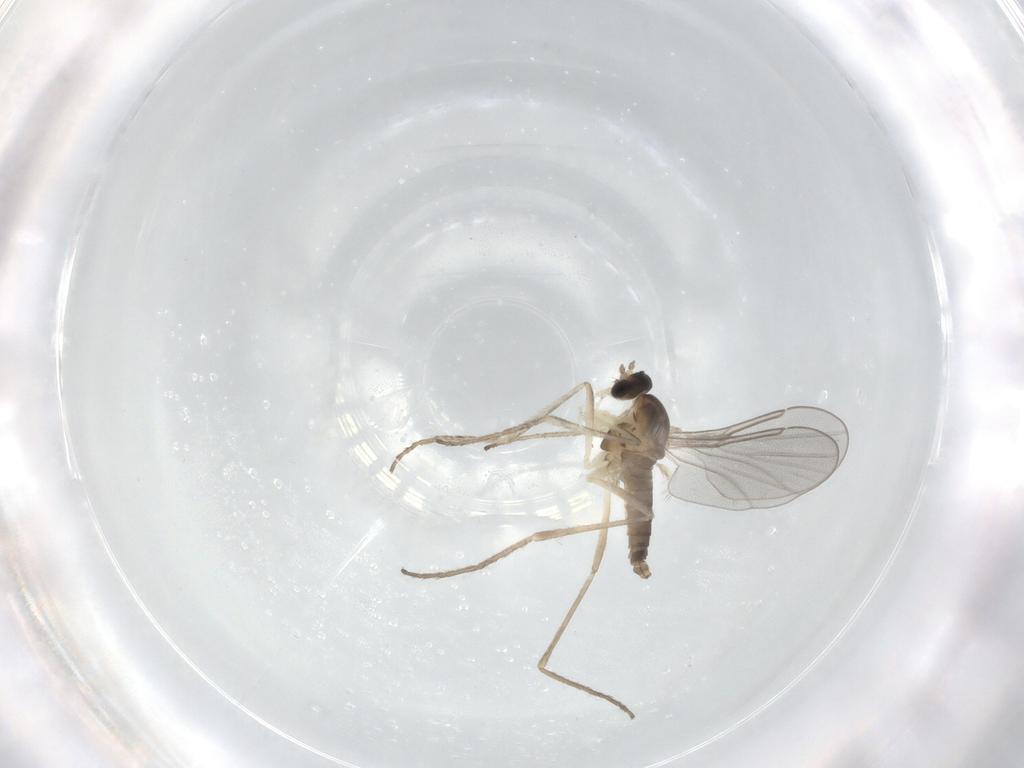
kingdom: Animalia
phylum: Arthropoda
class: Insecta
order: Diptera
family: Cecidomyiidae
